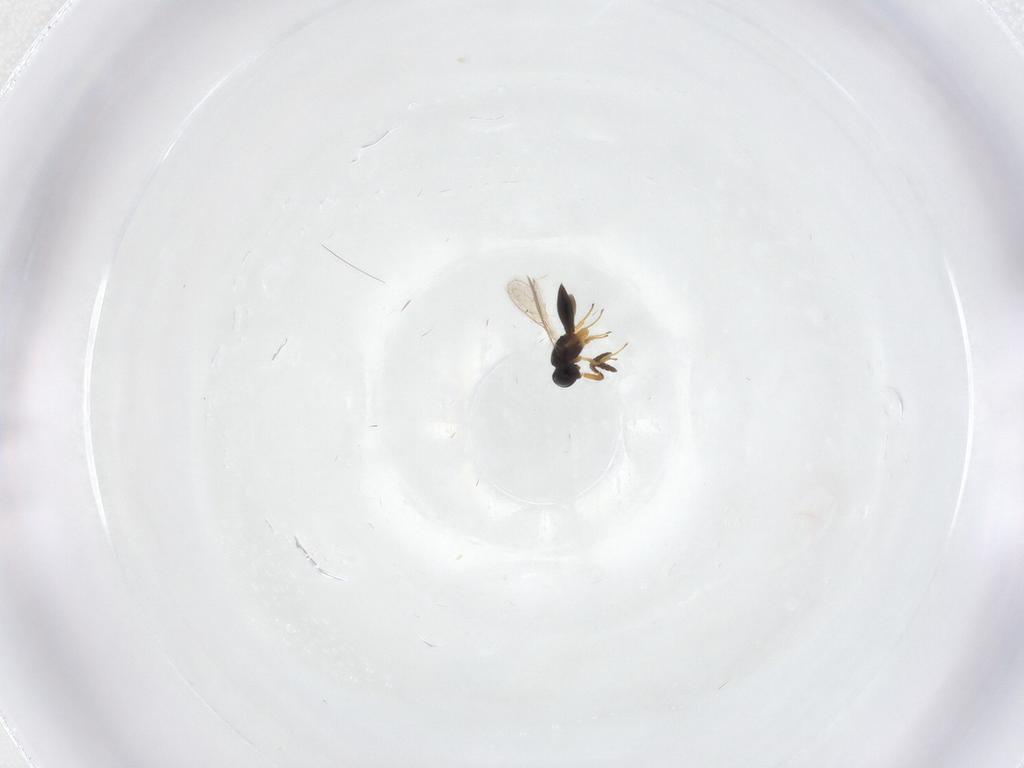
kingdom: Animalia
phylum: Arthropoda
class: Insecta
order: Hymenoptera
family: Scelionidae
